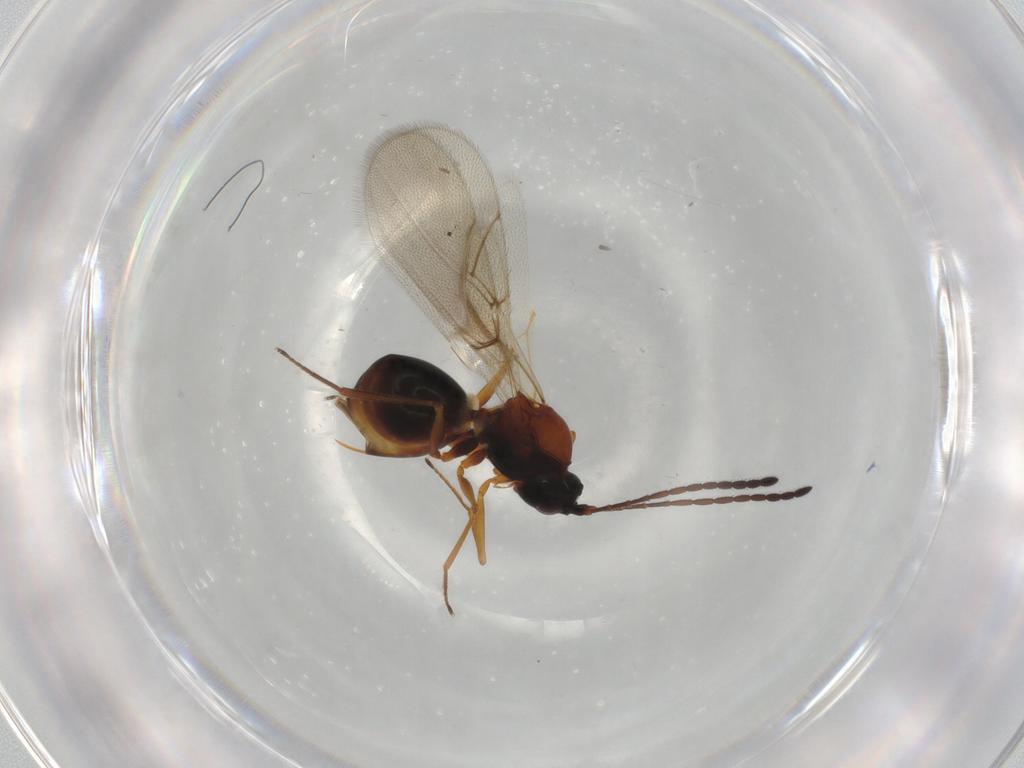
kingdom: Animalia
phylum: Arthropoda
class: Insecta
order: Hymenoptera
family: Figitidae
